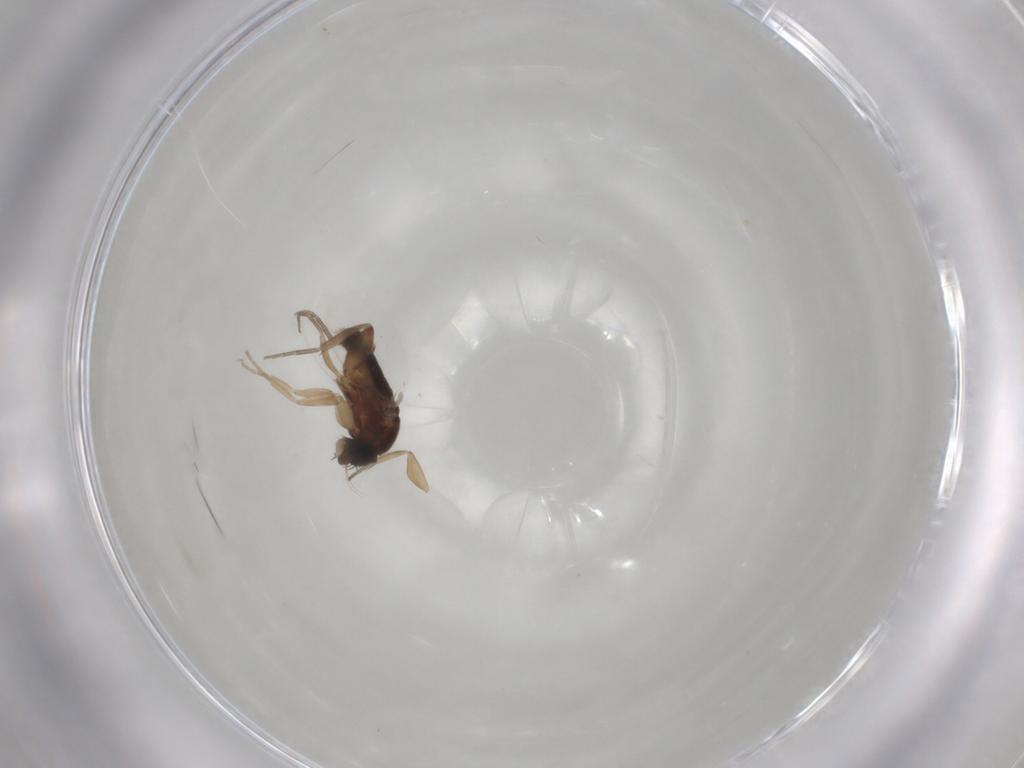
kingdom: Animalia
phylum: Arthropoda
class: Insecta
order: Diptera
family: Phoridae
